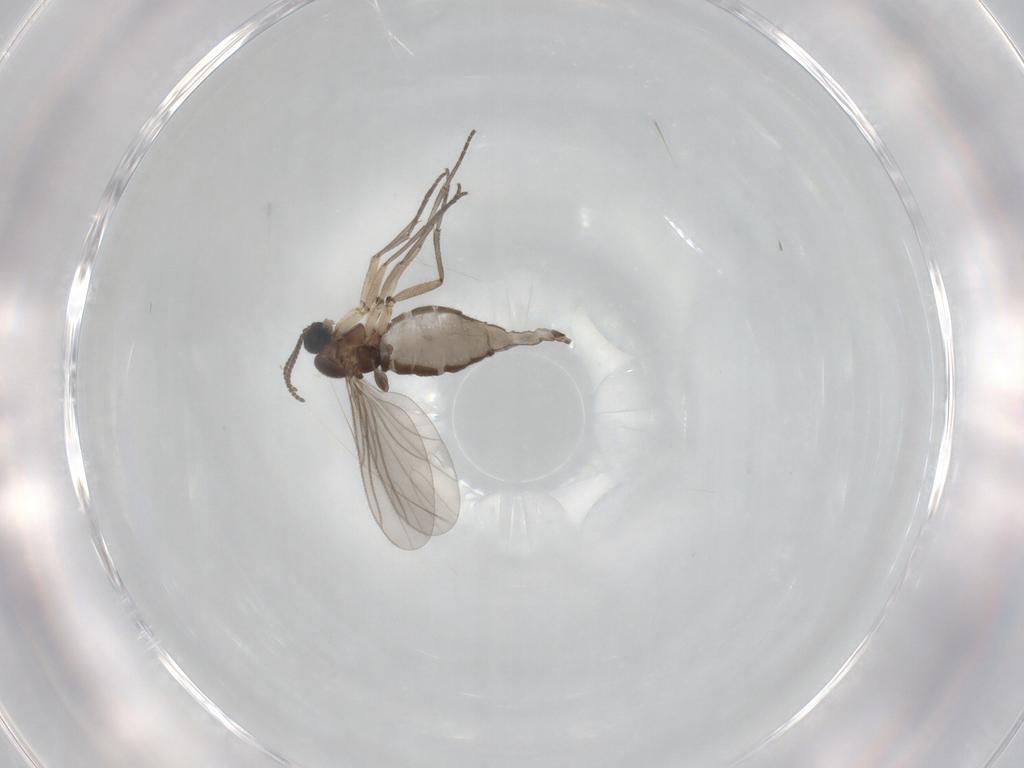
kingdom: Animalia
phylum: Arthropoda
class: Insecta
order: Diptera
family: Sciaridae
